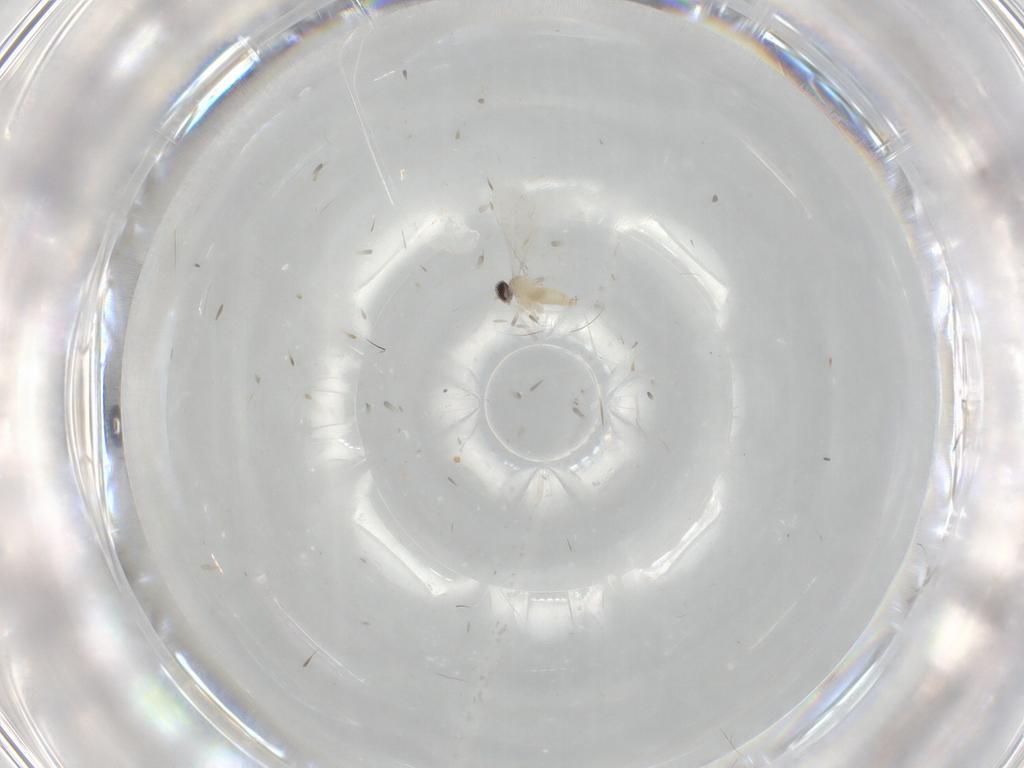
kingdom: Animalia
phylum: Arthropoda
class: Insecta
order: Diptera
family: Cecidomyiidae
